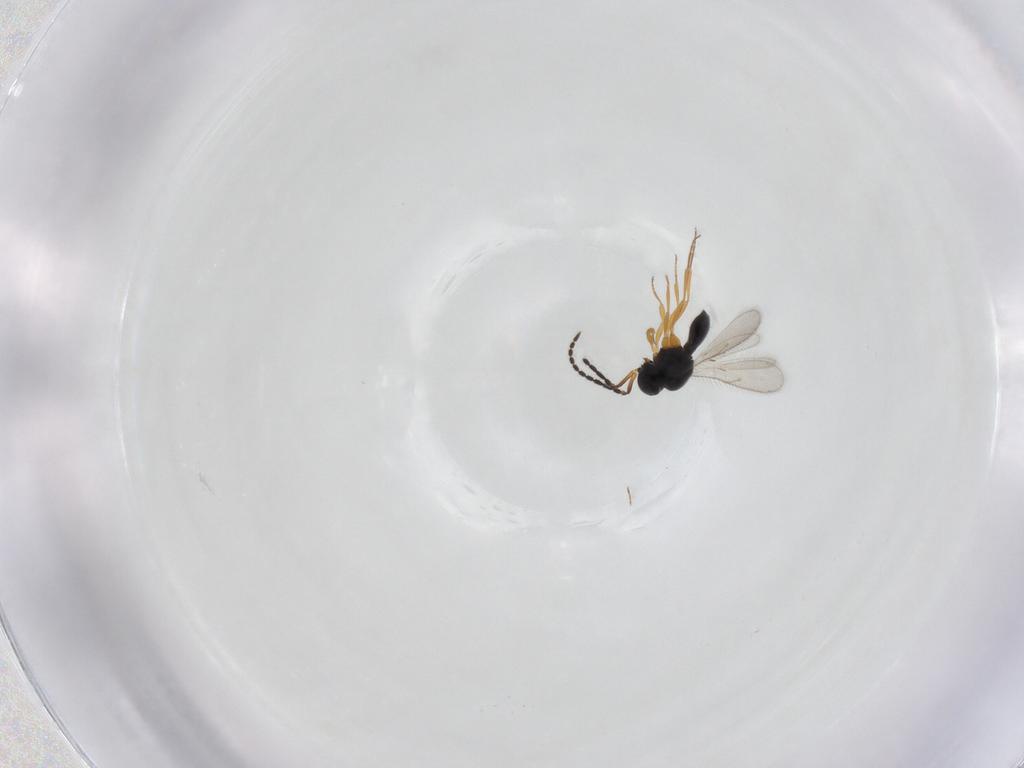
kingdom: Animalia
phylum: Arthropoda
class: Insecta
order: Hymenoptera
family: Scelionidae
